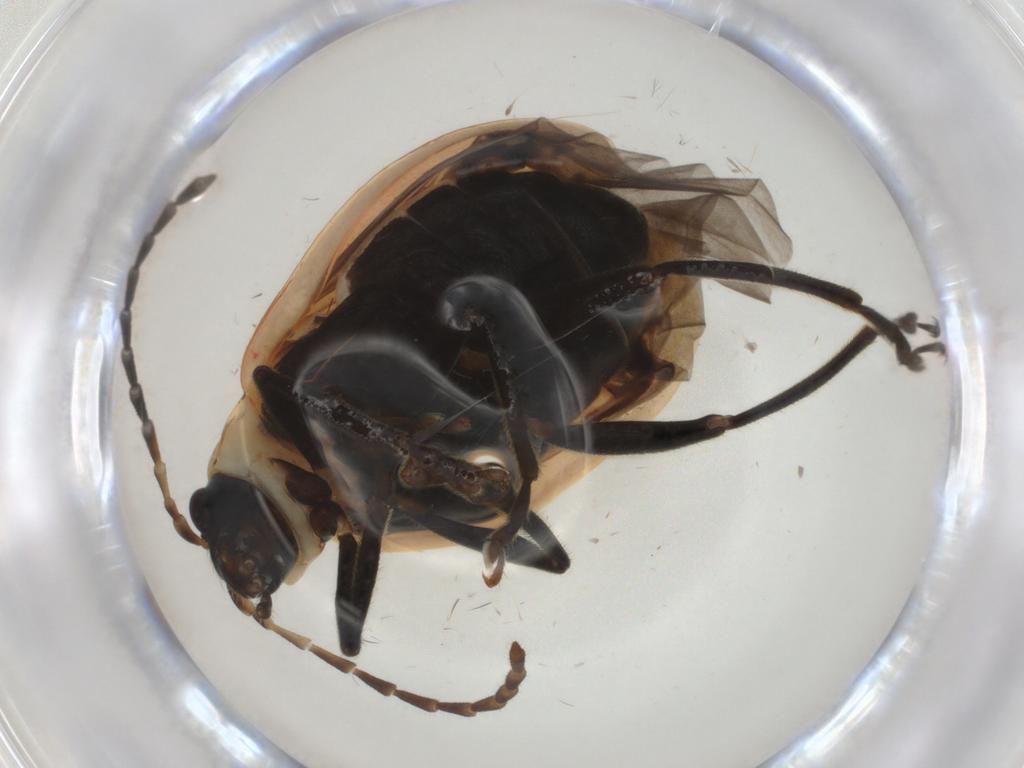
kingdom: Animalia
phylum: Arthropoda
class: Insecta
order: Coleoptera
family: Chrysomelidae
